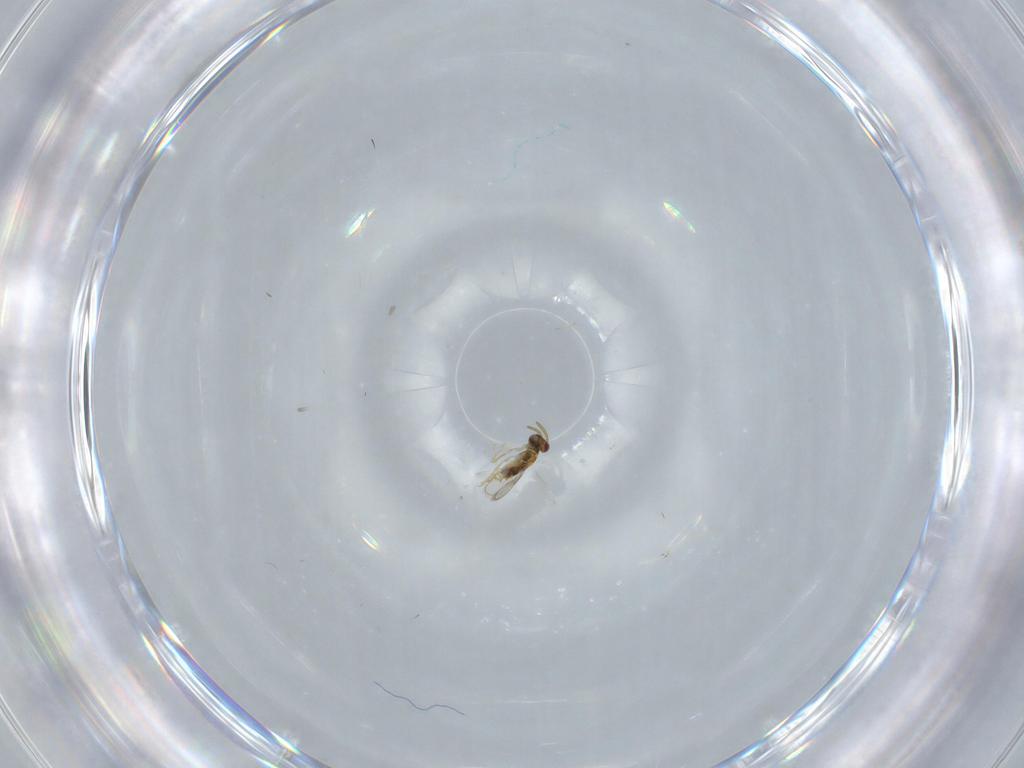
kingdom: Animalia
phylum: Arthropoda
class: Insecta
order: Hymenoptera
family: Aphelinidae
